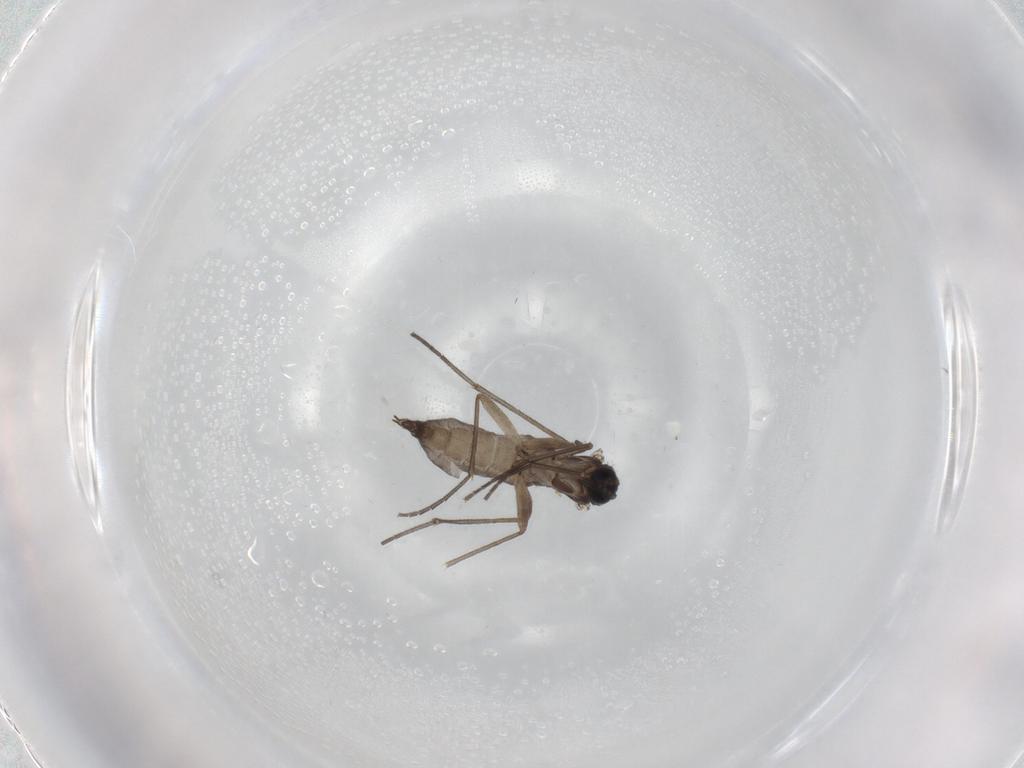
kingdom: Animalia
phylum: Arthropoda
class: Insecta
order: Diptera
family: Sciaridae
